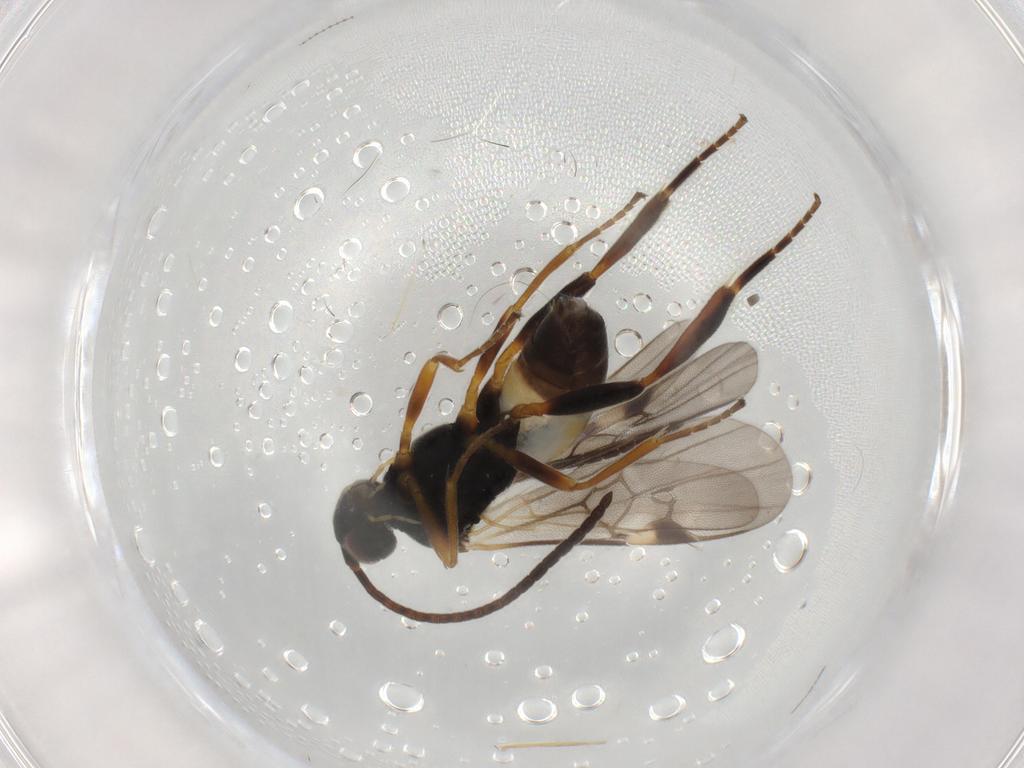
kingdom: Animalia
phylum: Arthropoda
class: Insecta
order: Hymenoptera
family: Braconidae
